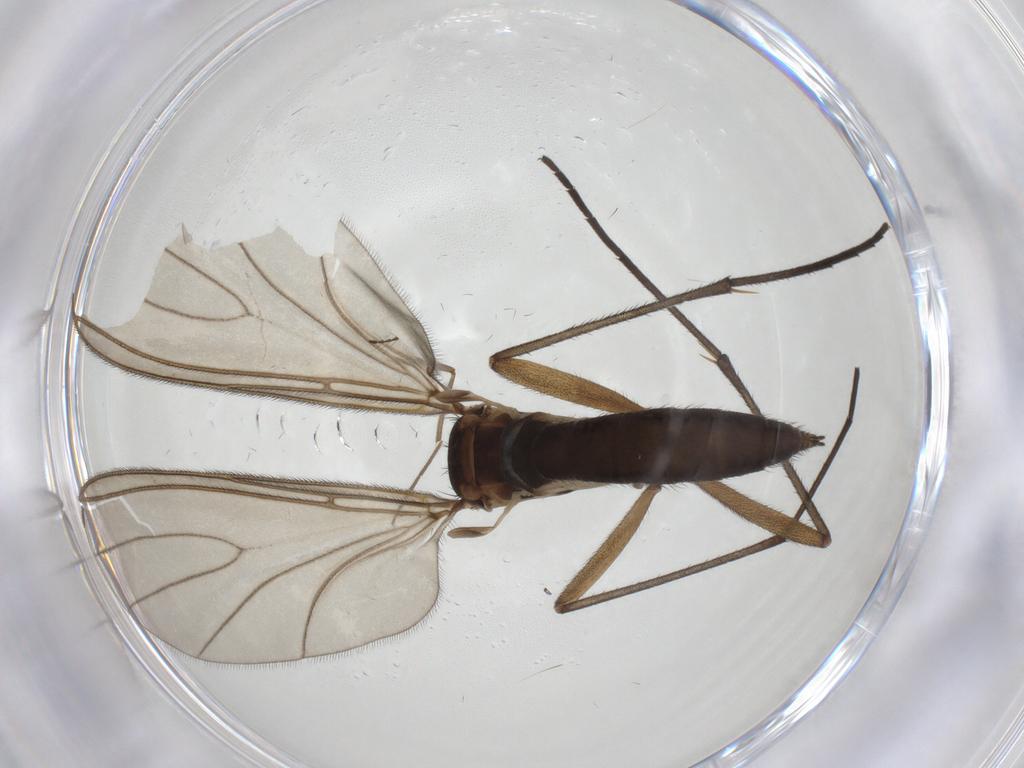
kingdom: Animalia
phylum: Arthropoda
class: Insecta
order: Diptera
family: Sciaridae
